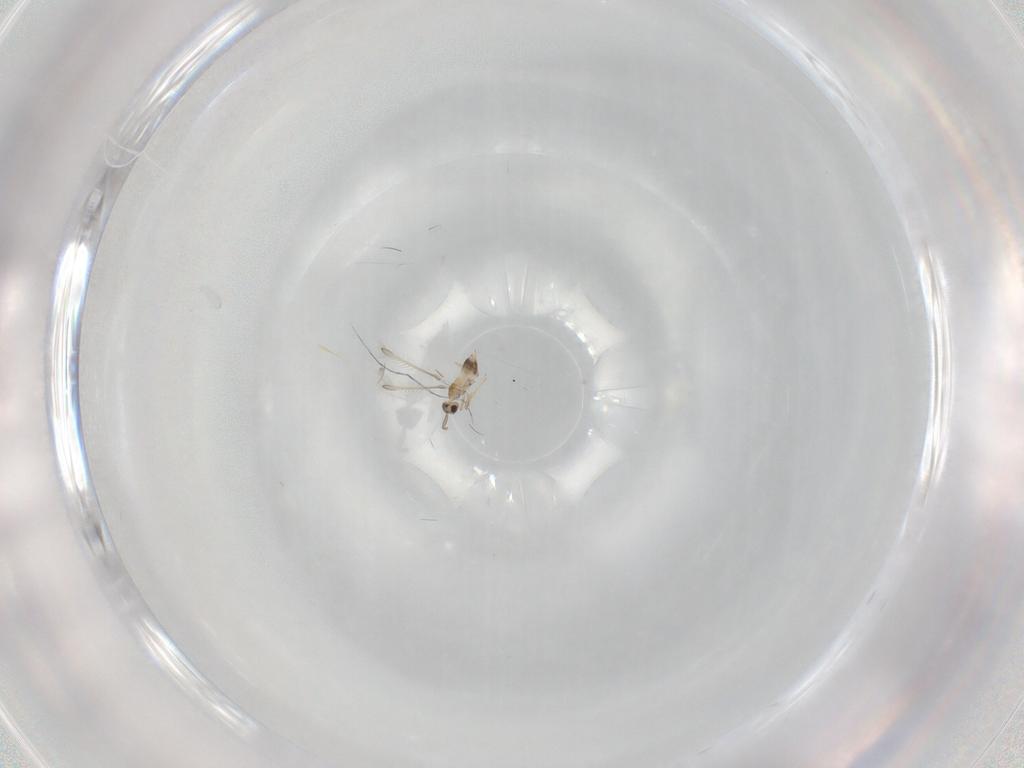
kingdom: Animalia
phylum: Arthropoda
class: Insecta
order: Hymenoptera
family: Mymaridae
